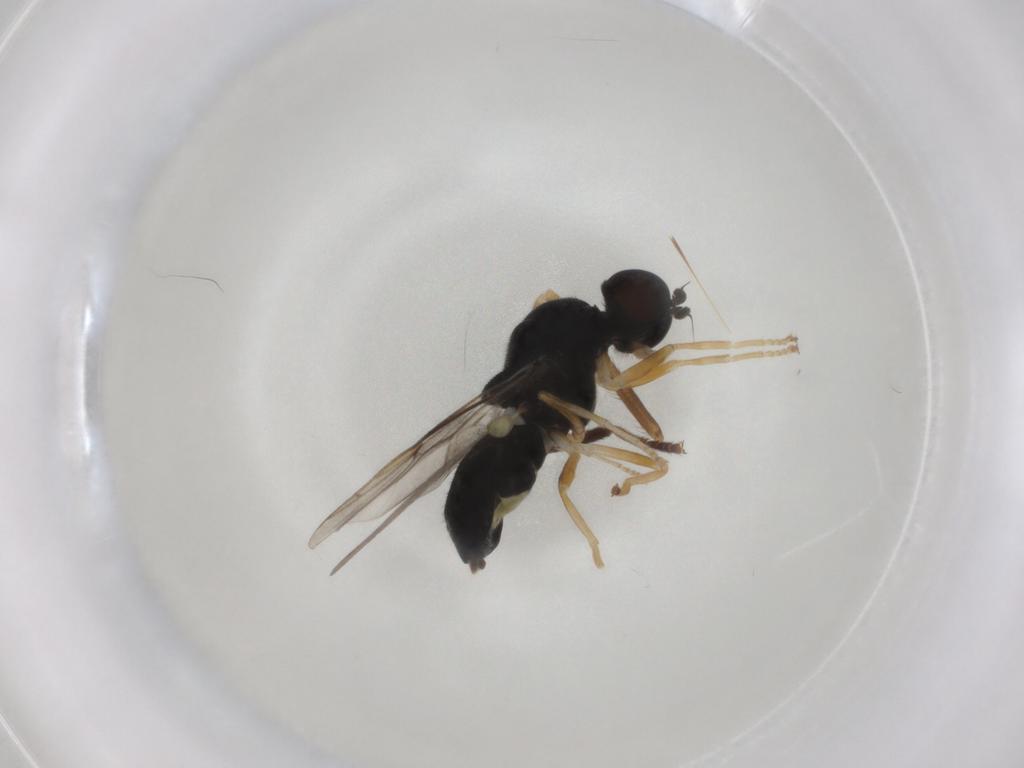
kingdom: Animalia
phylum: Arthropoda
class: Insecta
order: Diptera
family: Stratiomyidae
